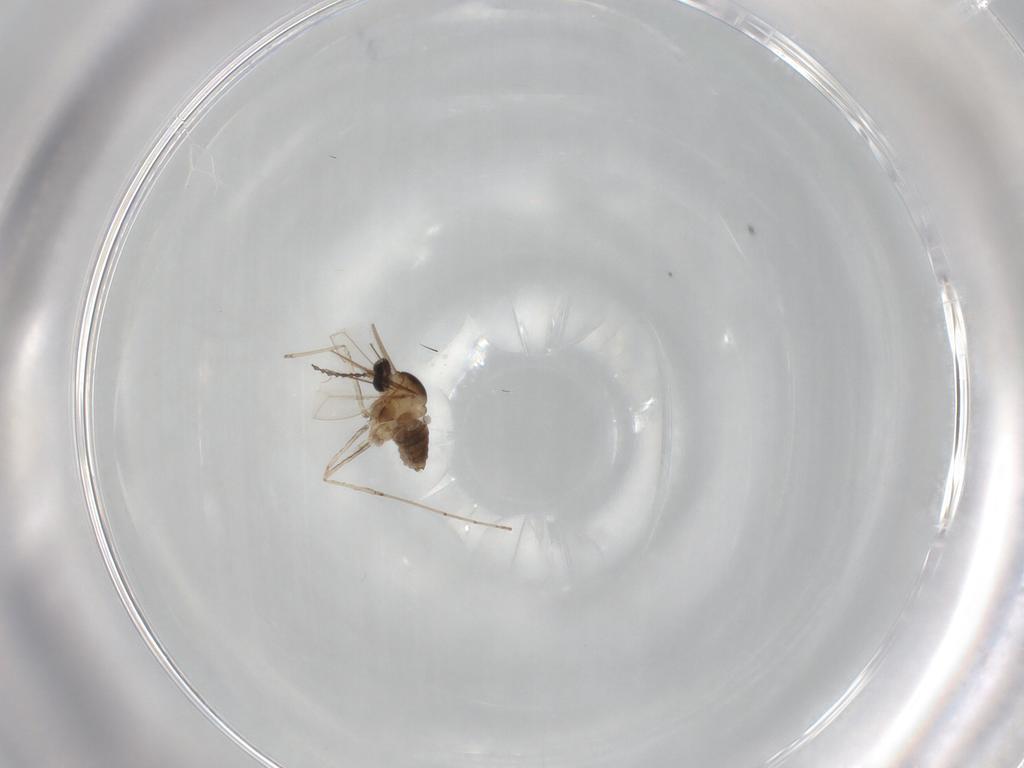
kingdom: Animalia
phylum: Arthropoda
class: Insecta
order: Diptera
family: Cecidomyiidae
